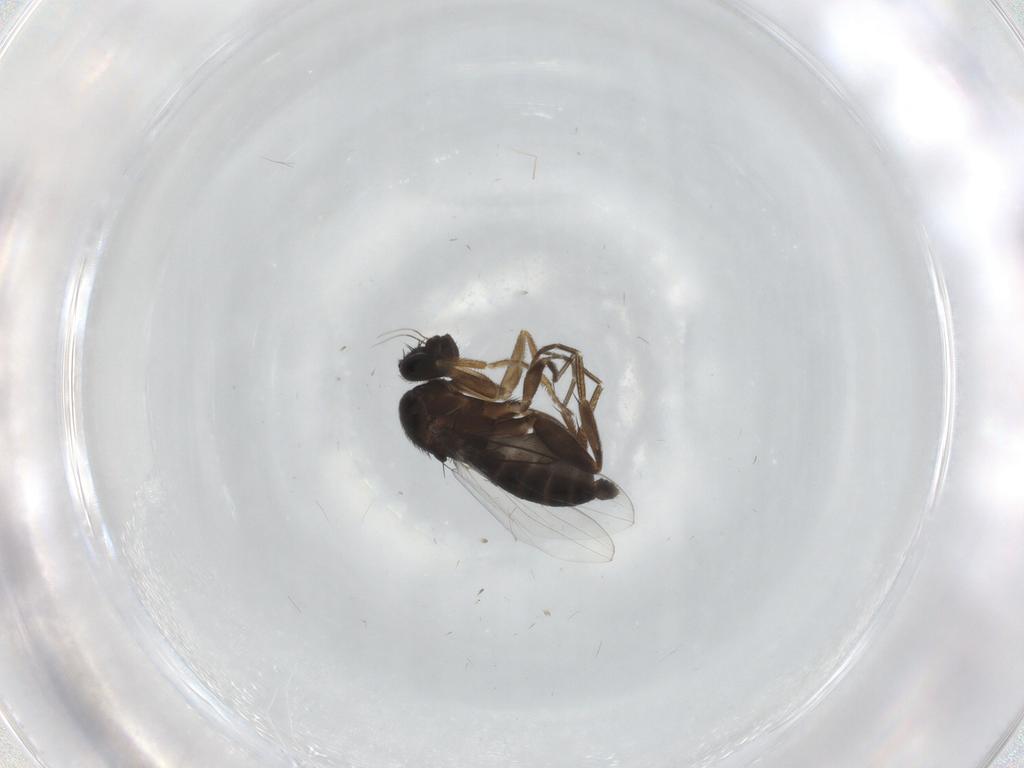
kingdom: Animalia
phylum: Arthropoda
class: Insecta
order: Diptera
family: Phoridae
